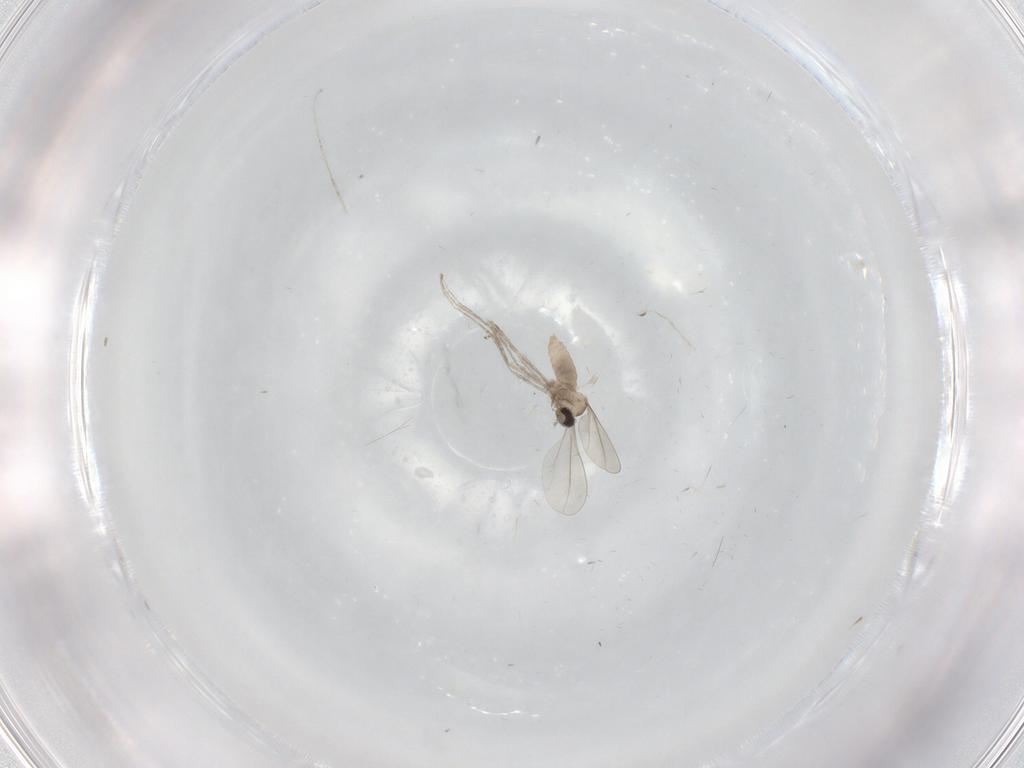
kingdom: Animalia
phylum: Arthropoda
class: Insecta
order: Diptera
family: Cecidomyiidae
